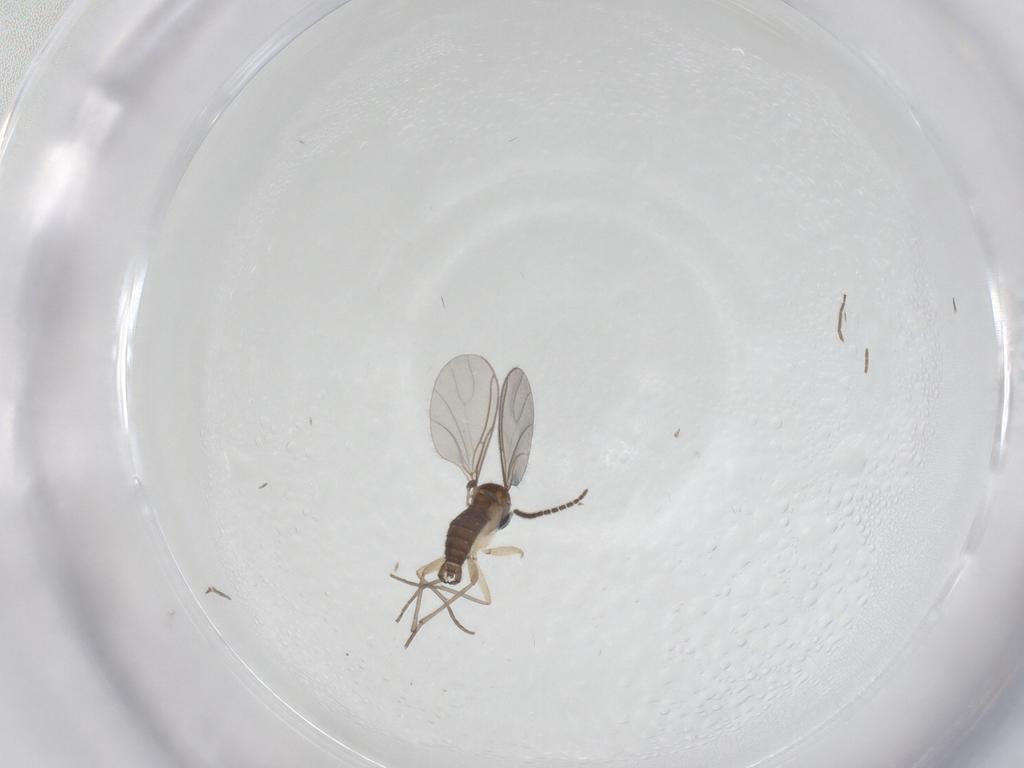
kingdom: Animalia
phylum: Arthropoda
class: Insecta
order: Diptera
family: Sciaridae
